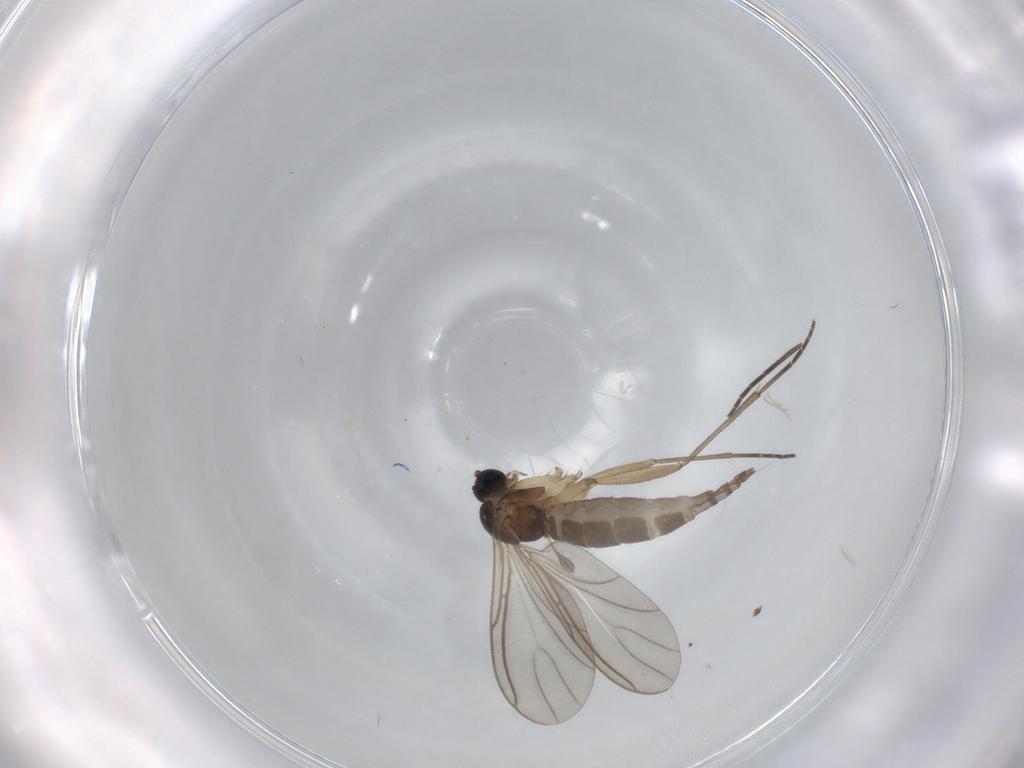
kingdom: Animalia
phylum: Arthropoda
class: Insecta
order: Diptera
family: Sciaridae
